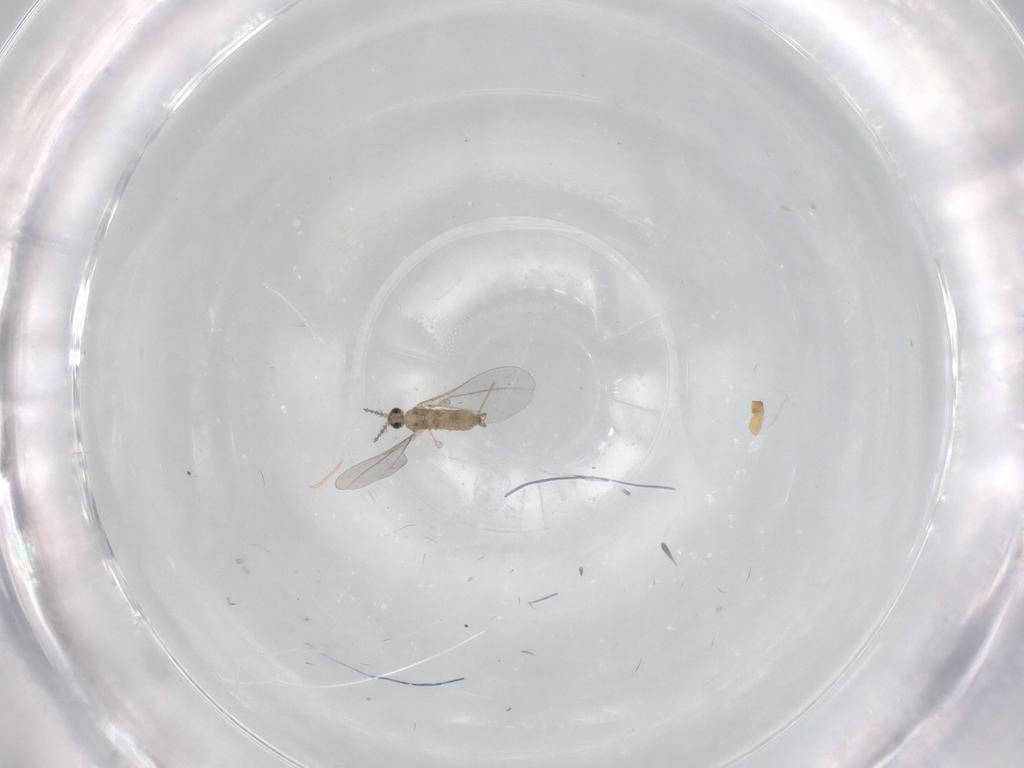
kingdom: Animalia
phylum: Arthropoda
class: Insecta
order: Diptera
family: Cecidomyiidae
